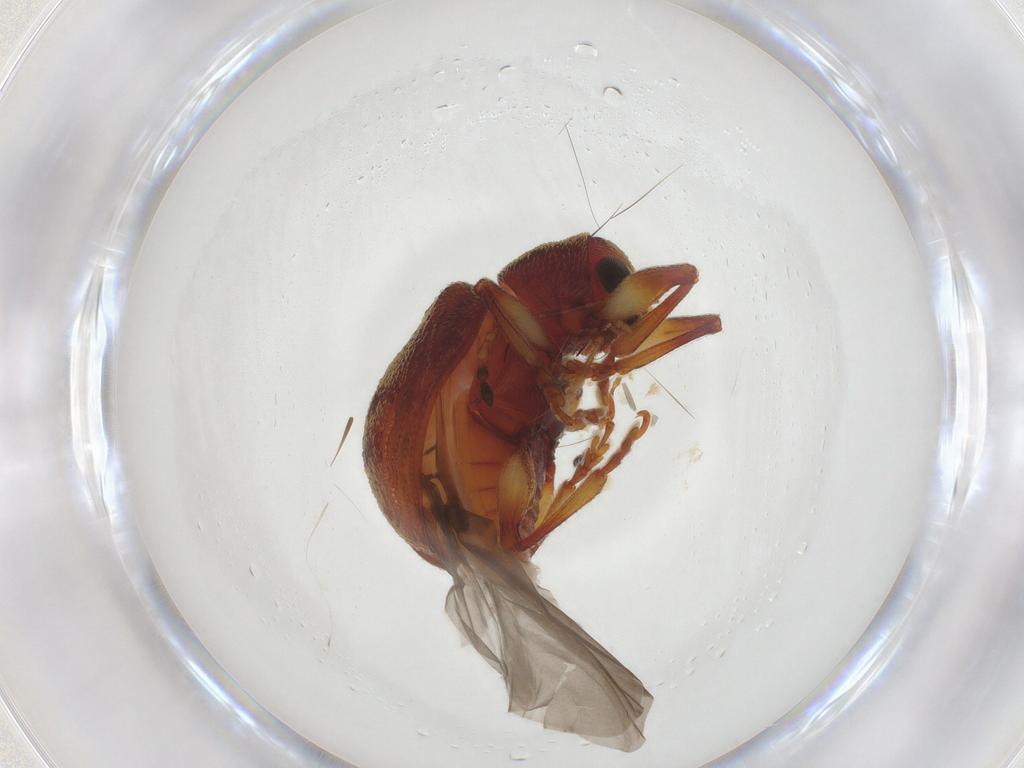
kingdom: Animalia
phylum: Arthropoda
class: Insecta
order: Coleoptera
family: Chrysomelidae
